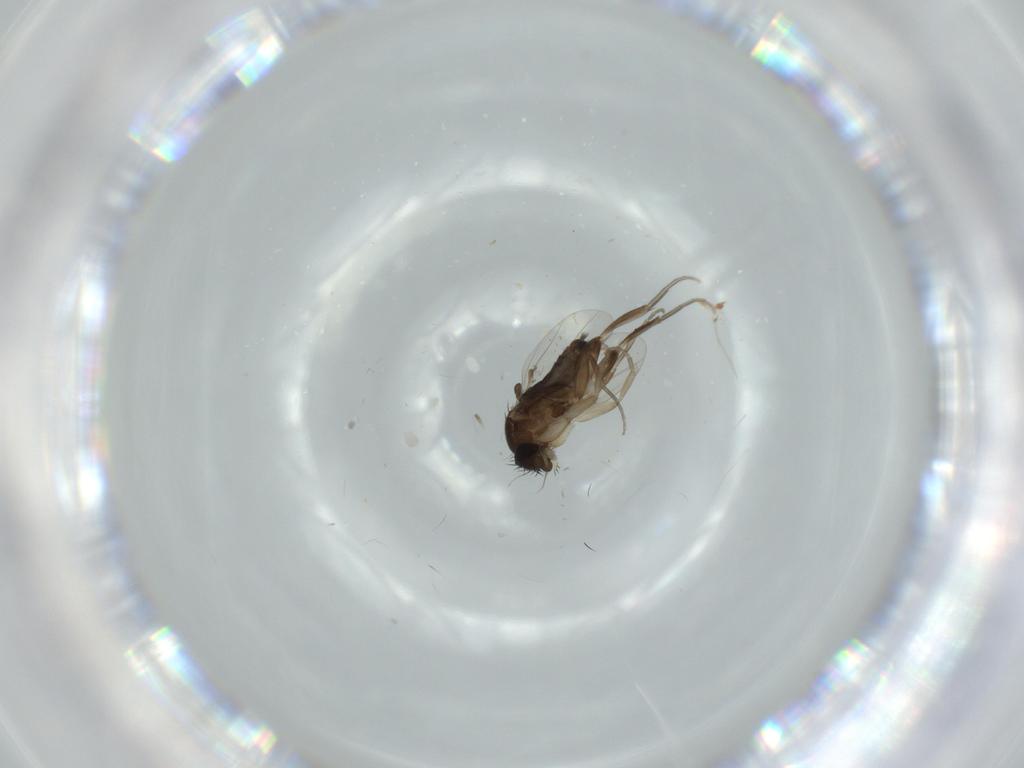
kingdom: Animalia
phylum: Arthropoda
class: Insecta
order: Diptera
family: Phoridae
